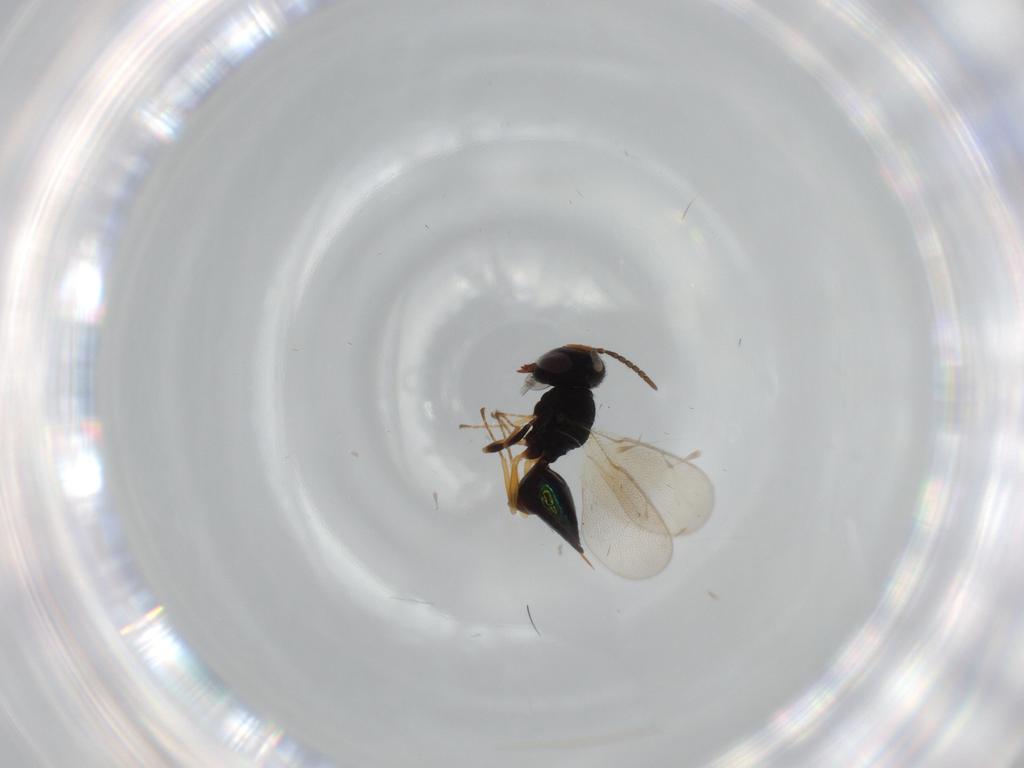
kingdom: Animalia
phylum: Arthropoda
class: Insecta
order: Hymenoptera
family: Pteromalidae
